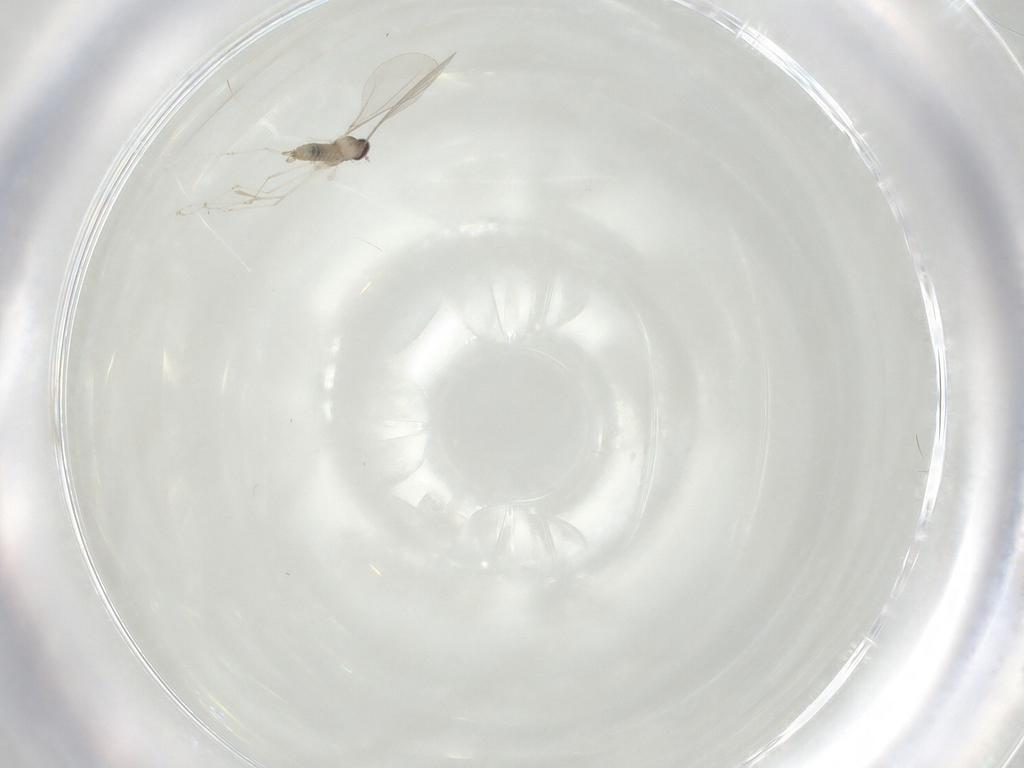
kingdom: Animalia
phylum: Arthropoda
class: Insecta
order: Diptera
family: Cecidomyiidae
